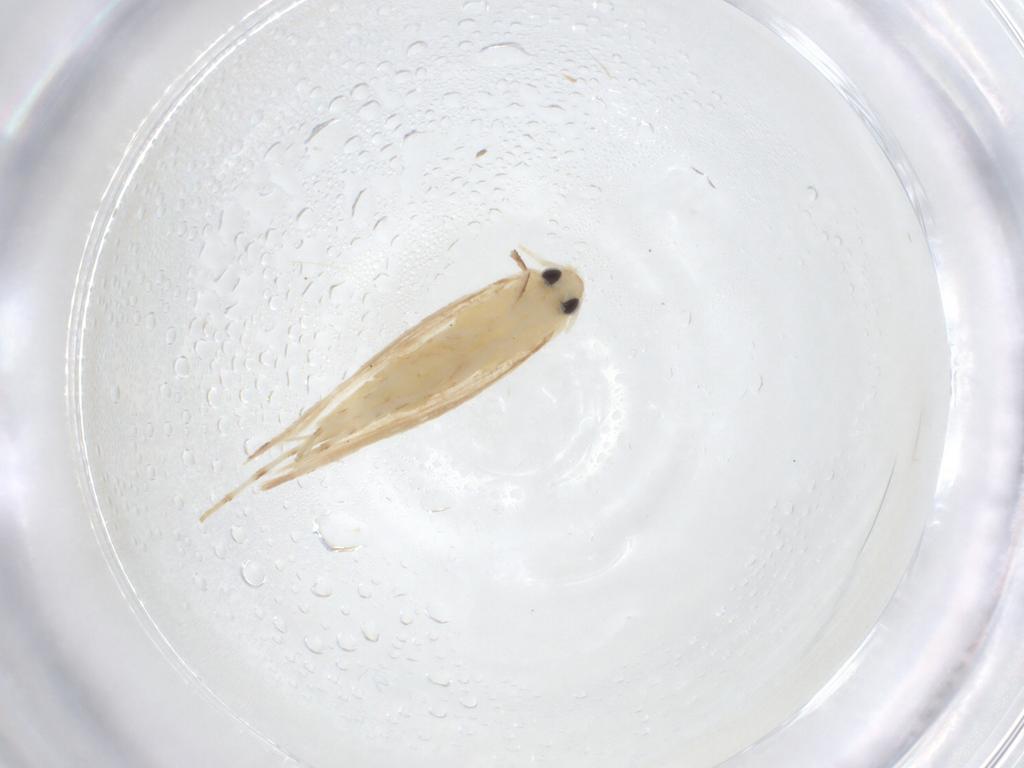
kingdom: Animalia
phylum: Arthropoda
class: Insecta
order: Lepidoptera
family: Gracillariidae
